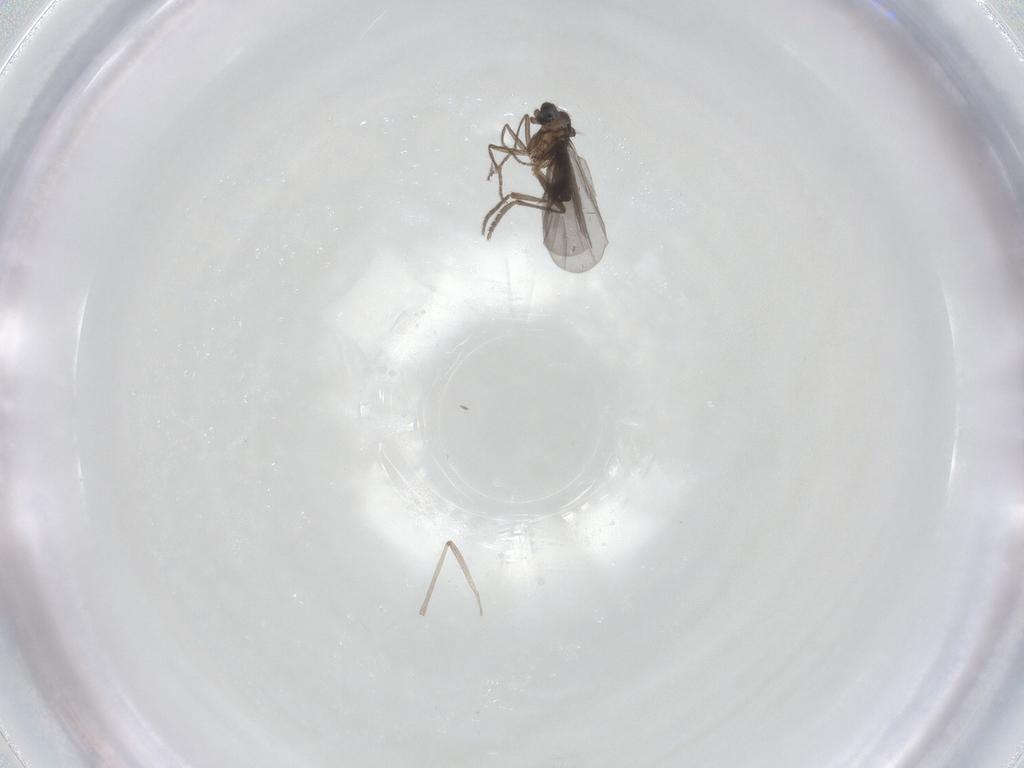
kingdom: Animalia
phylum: Arthropoda
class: Insecta
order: Diptera
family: Phoridae
